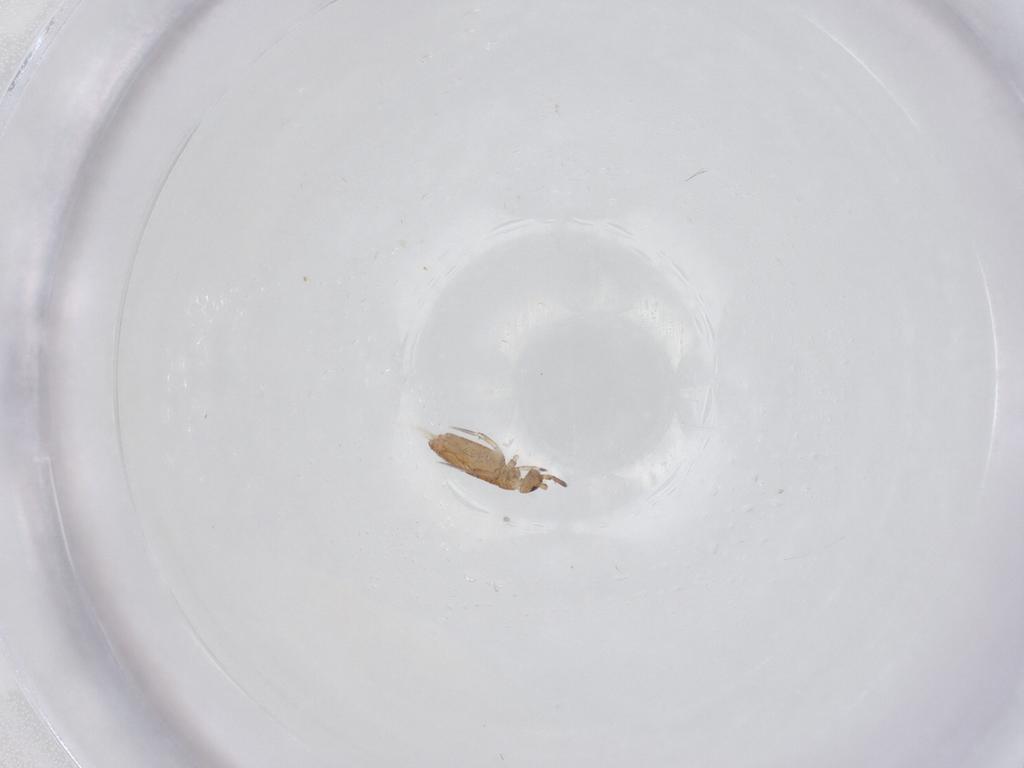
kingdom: Animalia
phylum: Arthropoda
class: Collembola
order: Entomobryomorpha
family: Entomobryidae
